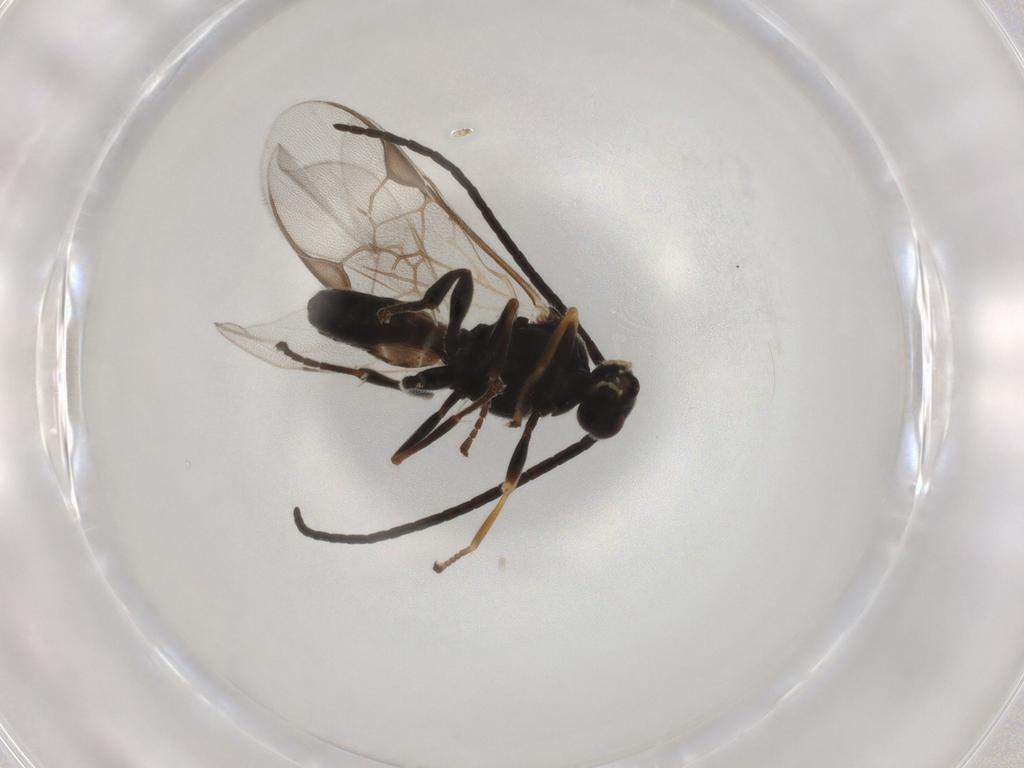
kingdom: Animalia
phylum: Arthropoda
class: Insecta
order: Hymenoptera
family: Braconidae
